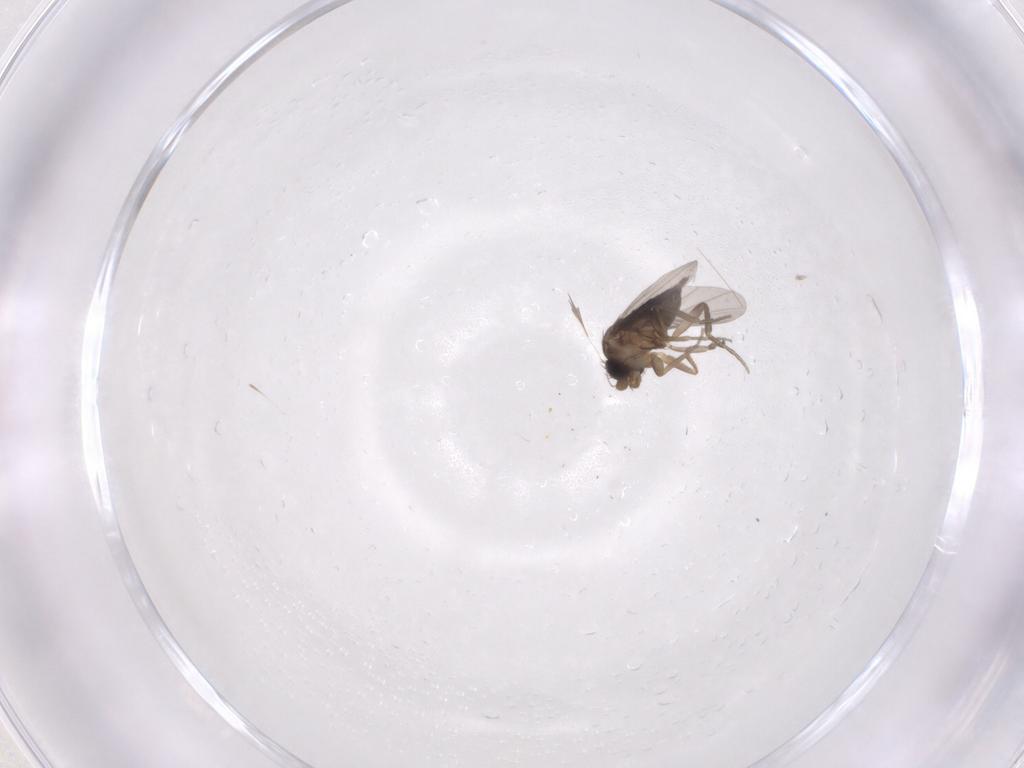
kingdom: Animalia
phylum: Arthropoda
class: Insecta
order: Diptera
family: Phoridae
